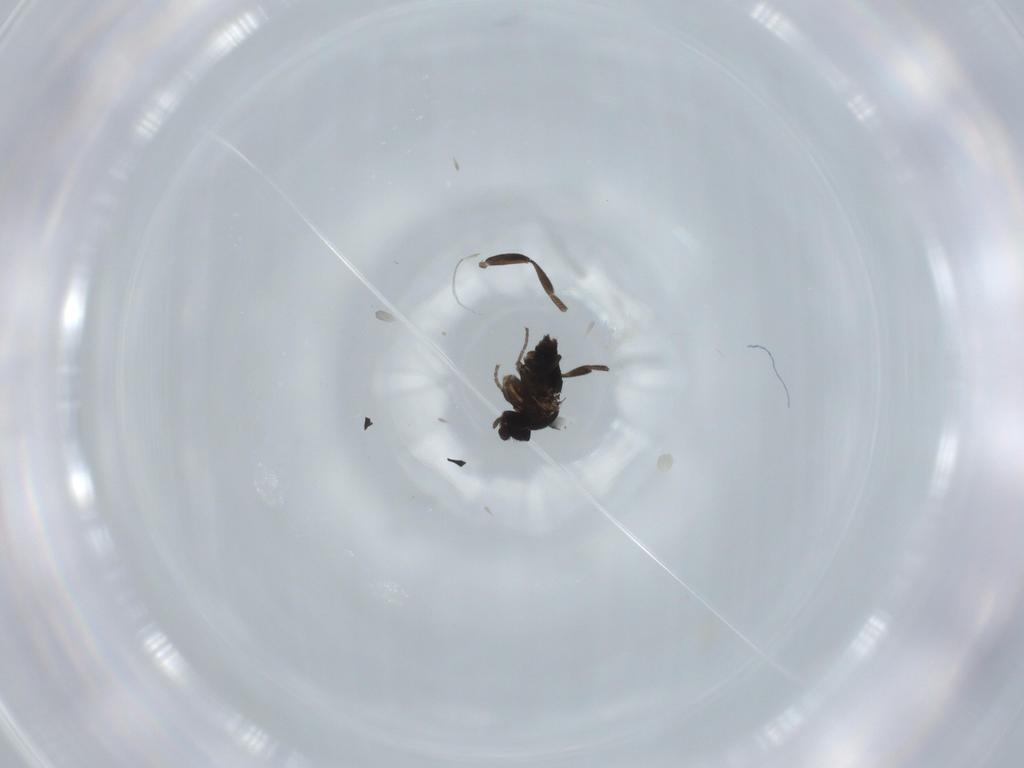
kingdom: Animalia
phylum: Arthropoda
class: Insecta
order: Diptera
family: Phoridae
